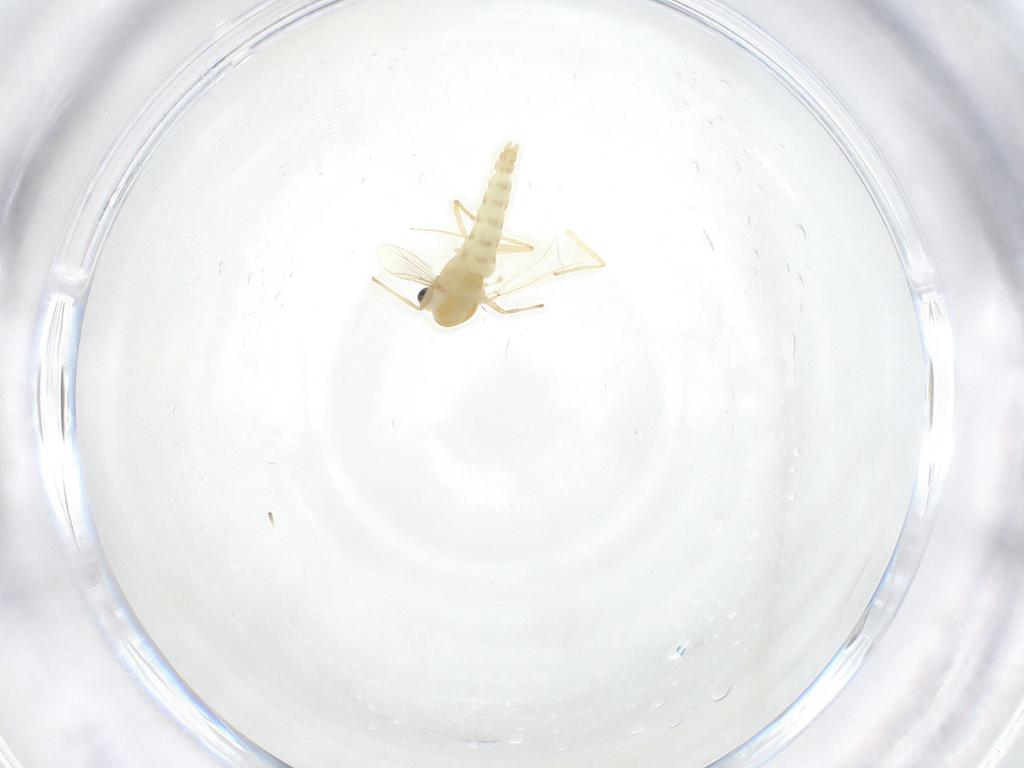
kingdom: Animalia
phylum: Arthropoda
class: Insecta
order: Diptera
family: Chironomidae
